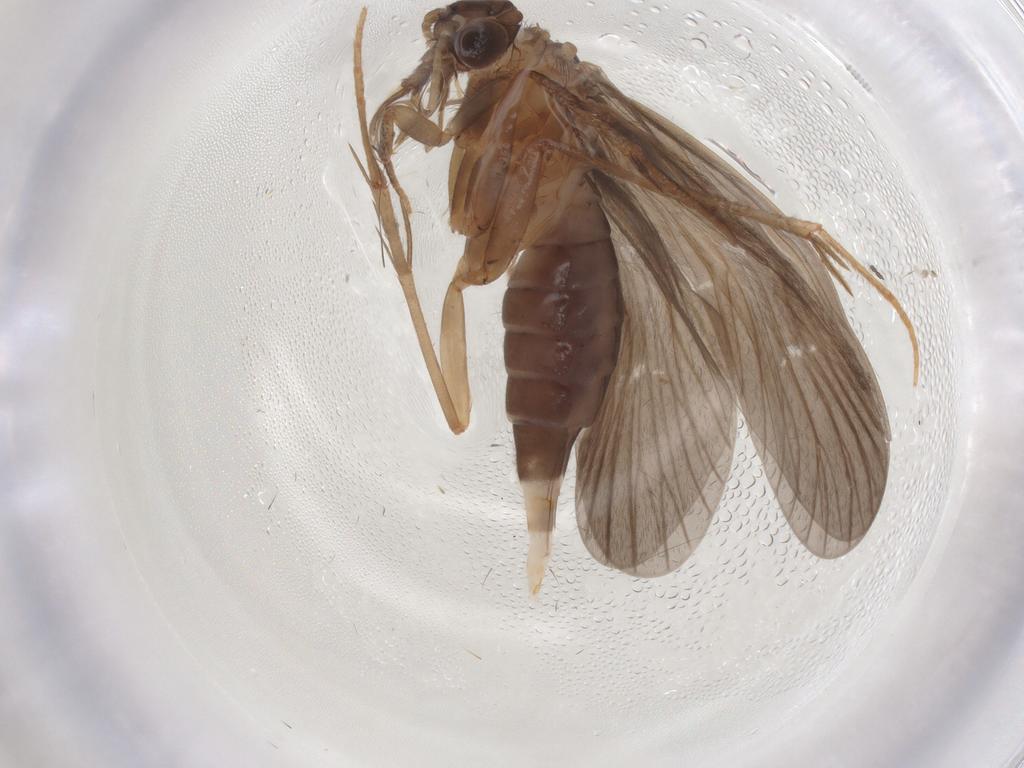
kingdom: Animalia
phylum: Arthropoda
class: Insecta
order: Trichoptera
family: Philopotamidae
